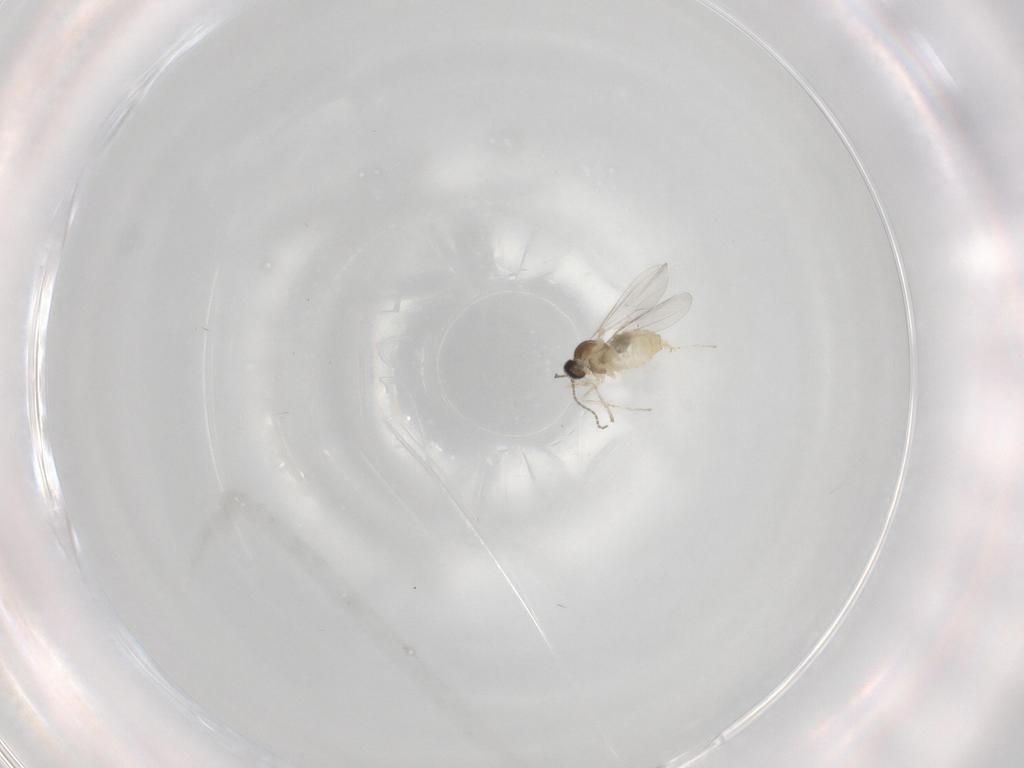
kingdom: Animalia
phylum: Arthropoda
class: Insecta
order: Diptera
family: Cecidomyiidae
